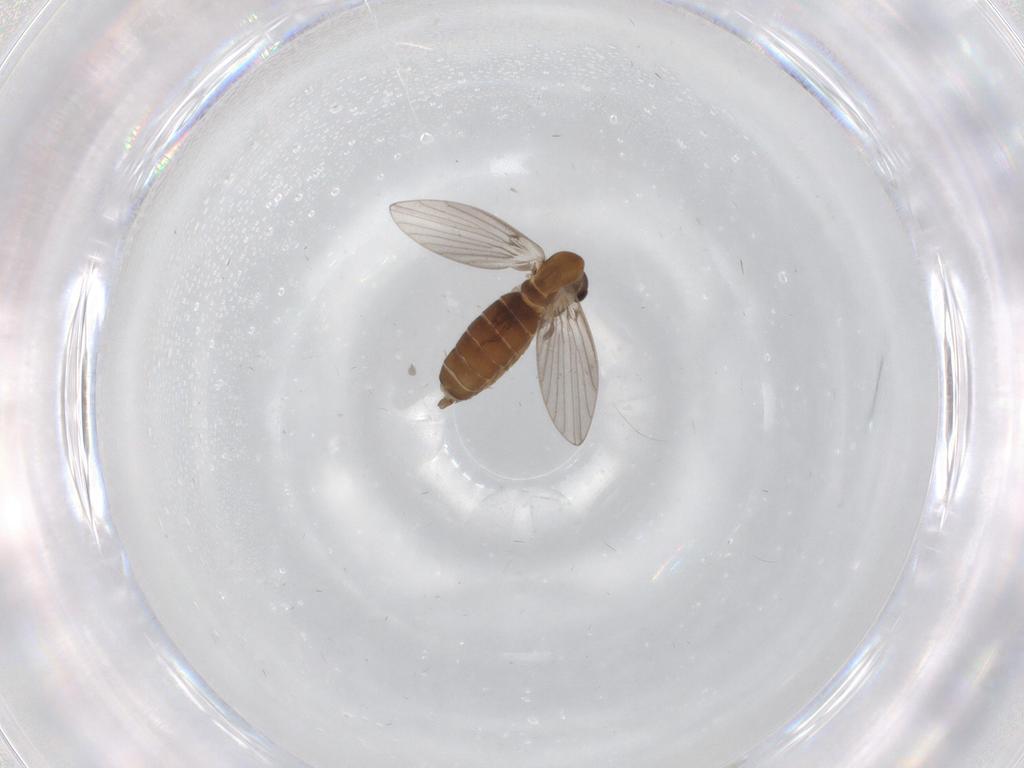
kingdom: Animalia
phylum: Arthropoda
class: Insecta
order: Diptera
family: Psychodidae
